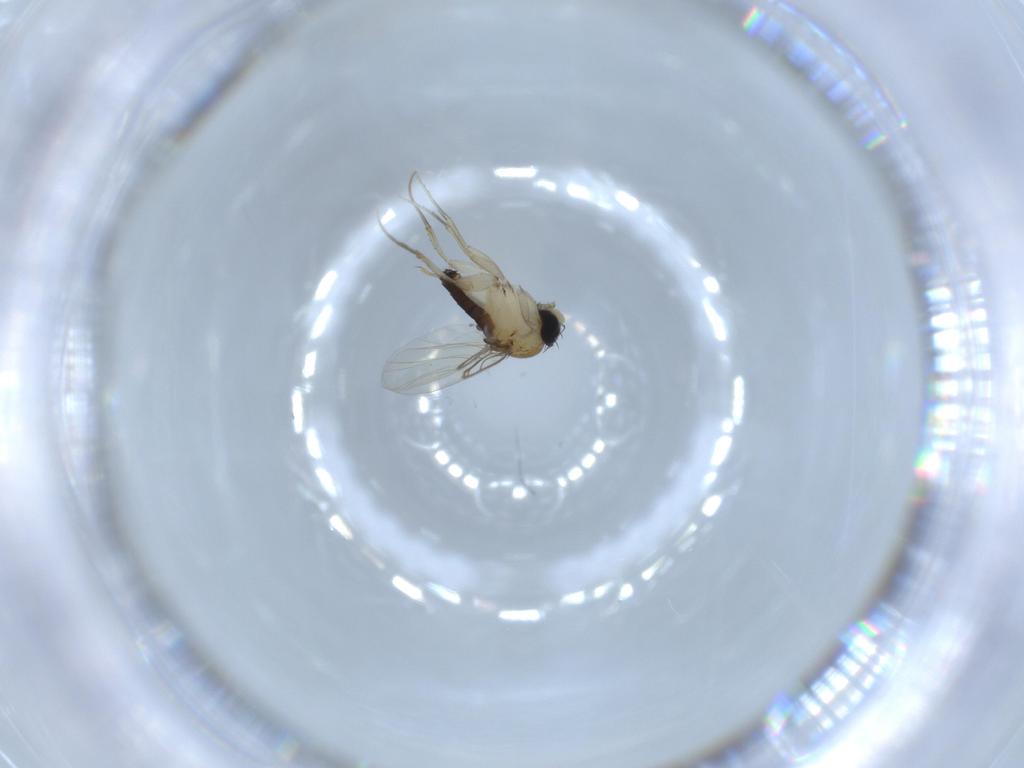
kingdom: Animalia
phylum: Arthropoda
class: Insecta
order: Diptera
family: Phoridae
